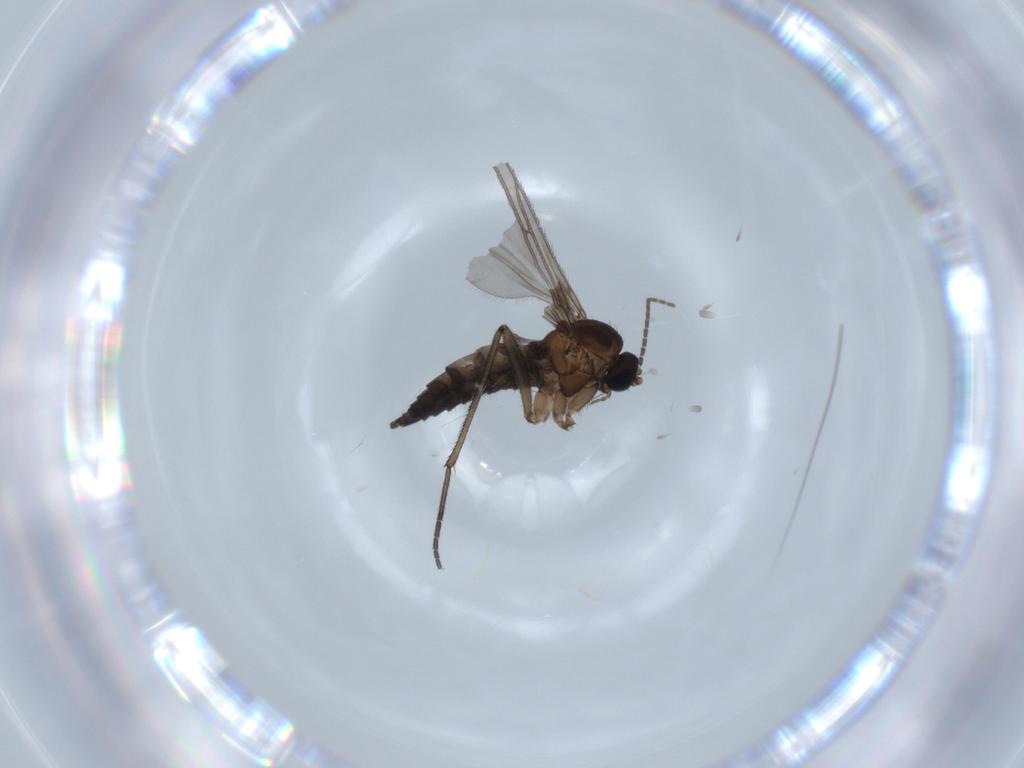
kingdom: Animalia
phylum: Arthropoda
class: Insecta
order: Diptera
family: Sciaridae
